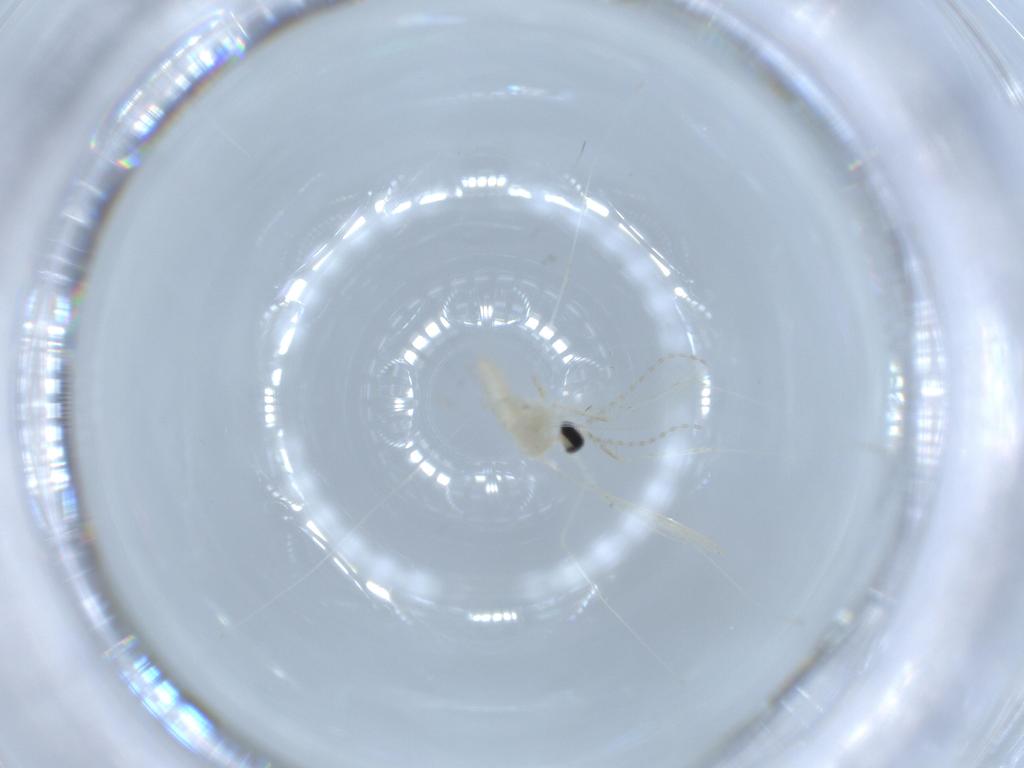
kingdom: Animalia
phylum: Arthropoda
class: Insecta
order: Diptera
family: Cecidomyiidae
